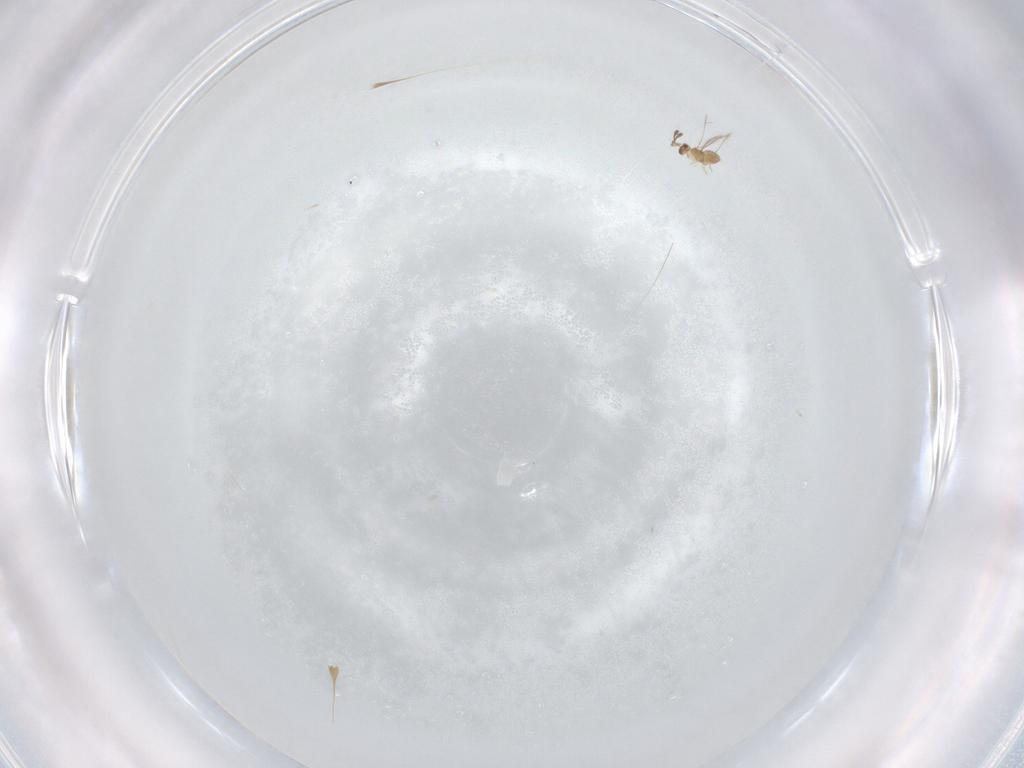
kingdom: Animalia
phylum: Arthropoda
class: Insecta
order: Hymenoptera
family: Mymaridae
